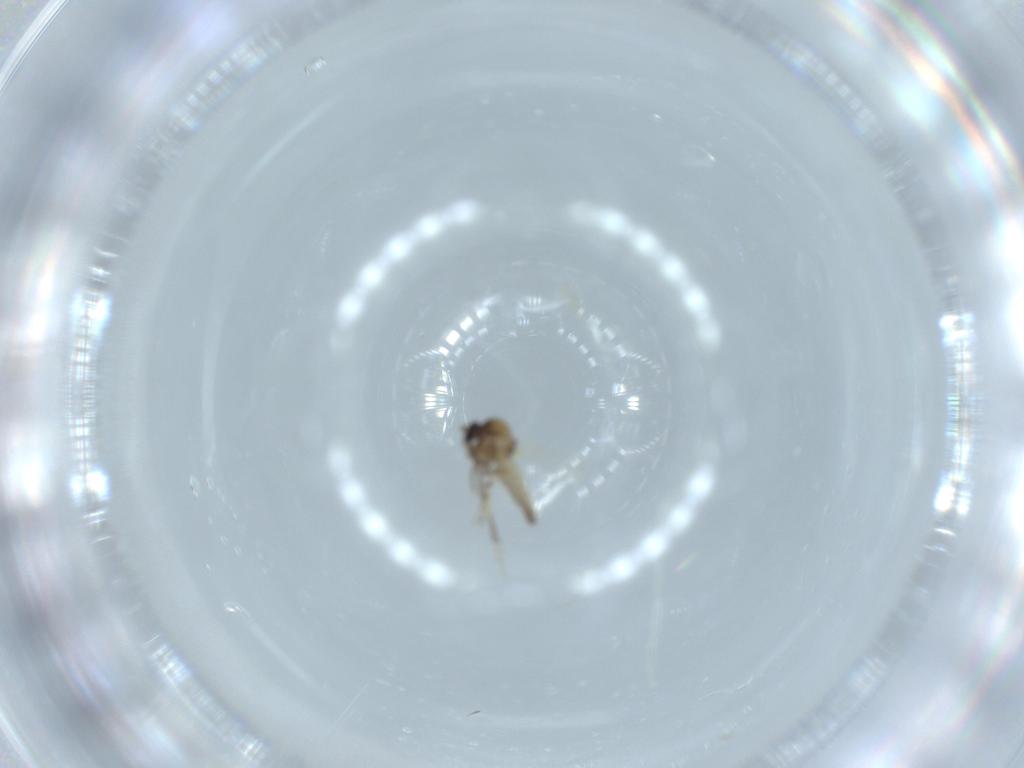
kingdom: Animalia
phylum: Arthropoda
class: Insecta
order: Diptera
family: Ceratopogonidae
